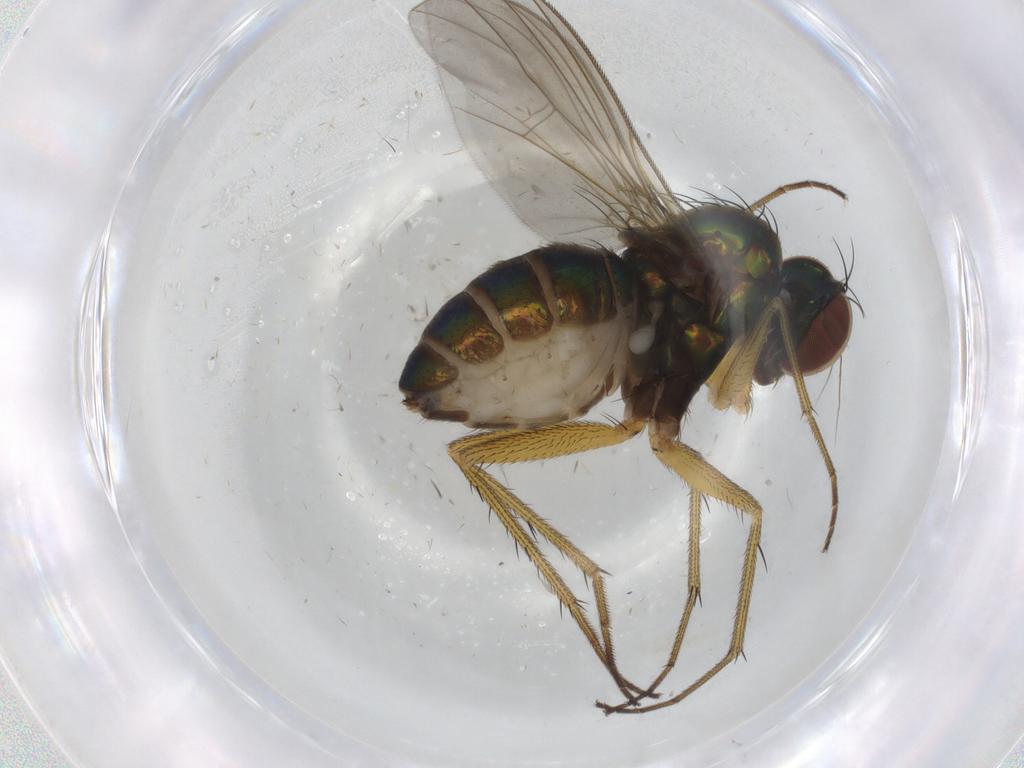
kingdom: Animalia
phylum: Arthropoda
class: Insecta
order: Diptera
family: Dolichopodidae
